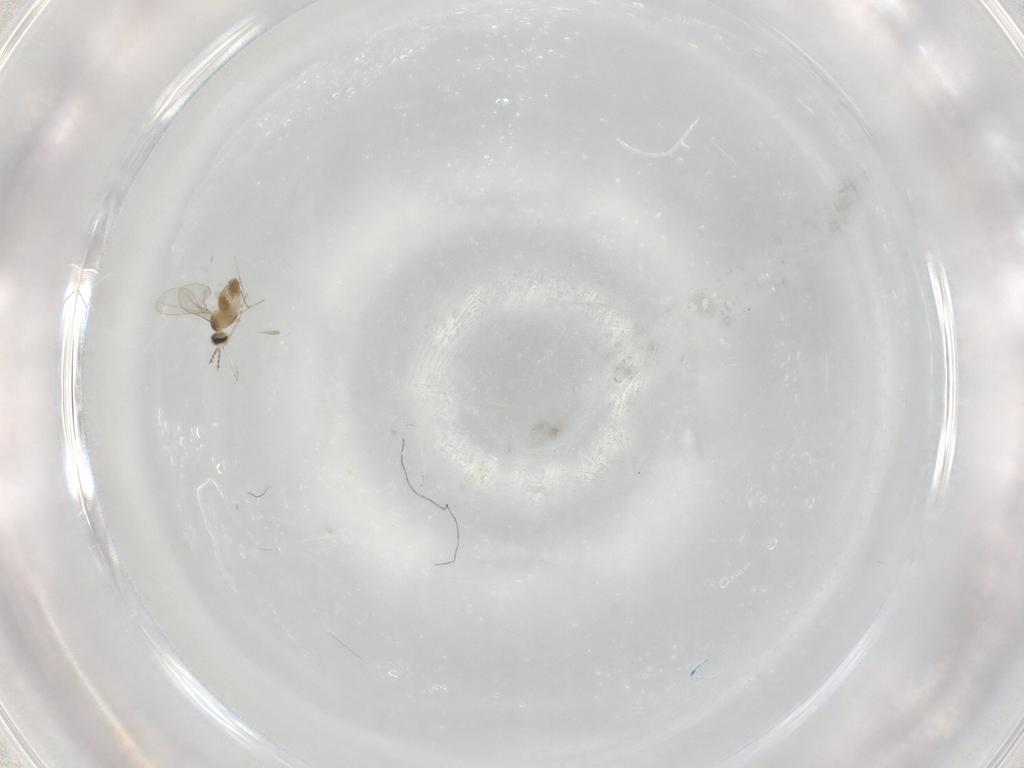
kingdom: Animalia
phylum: Arthropoda
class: Insecta
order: Diptera
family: Cecidomyiidae
